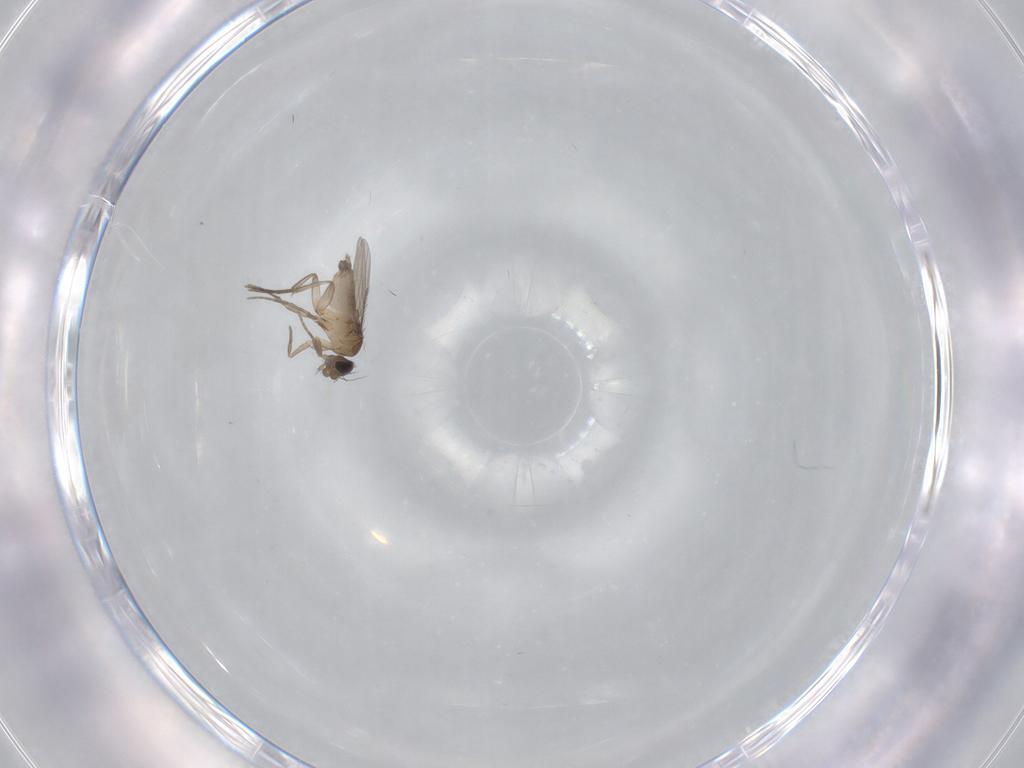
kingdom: Animalia
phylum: Arthropoda
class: Insecta
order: Diptera
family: Phoridae
